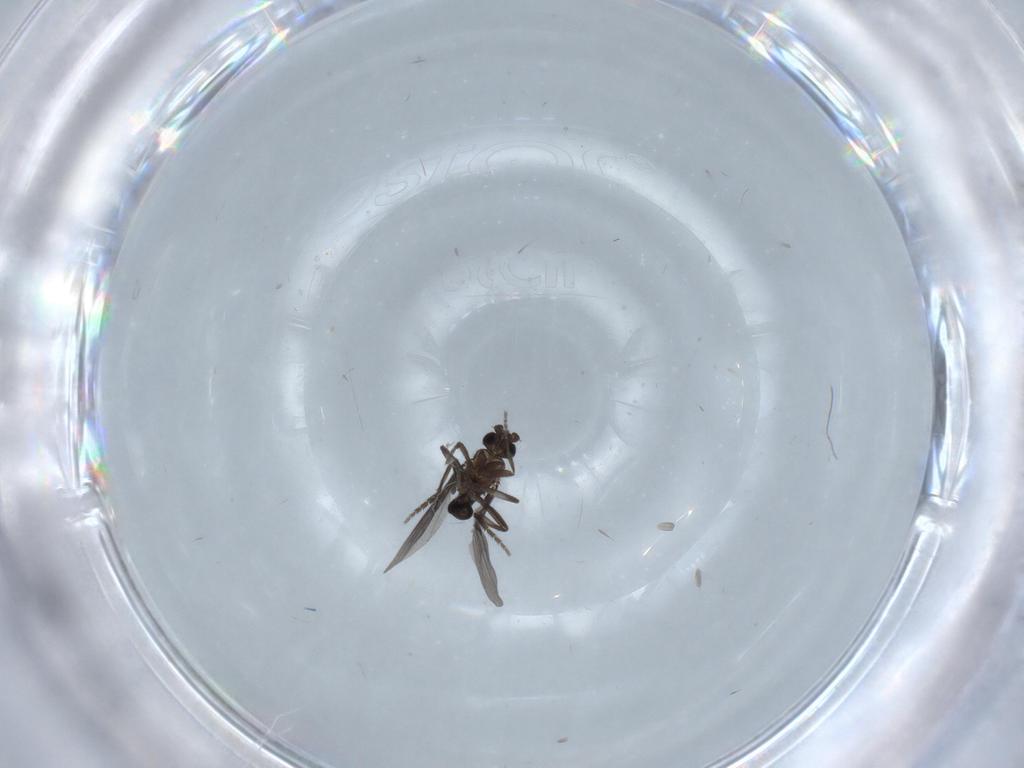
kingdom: Animalia
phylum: Arthropoda
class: Insecta
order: Diptera
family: Phoridae
